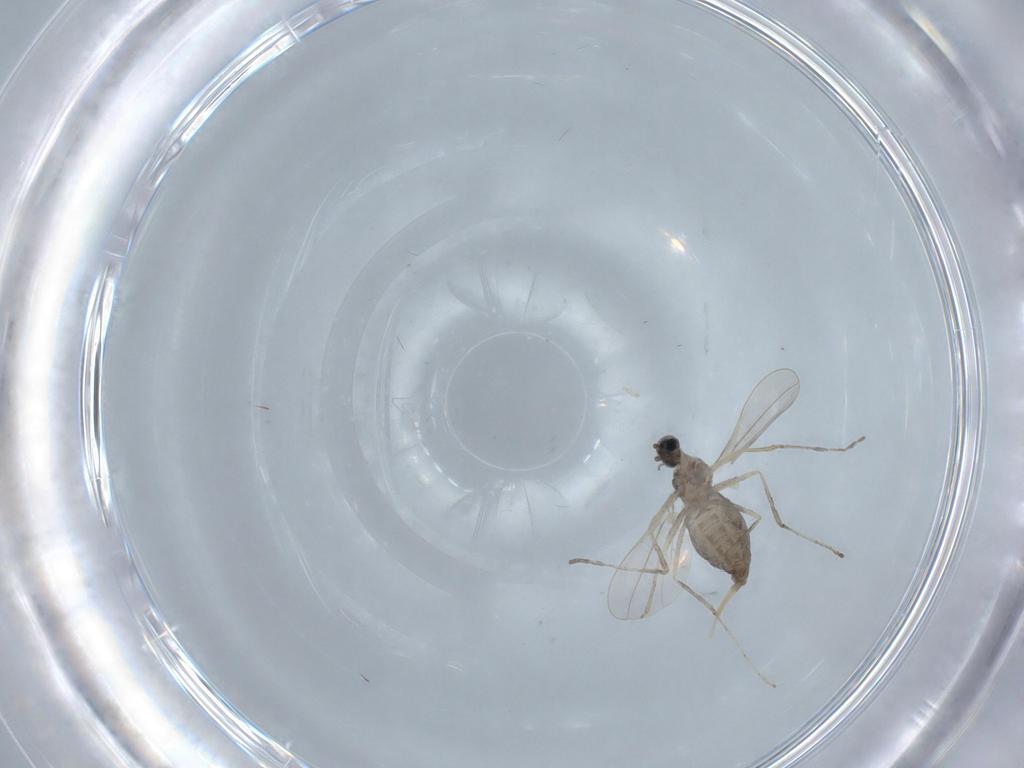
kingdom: Animalia
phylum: Arthropoda
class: Insecta
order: Diptera
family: Cecidomyiidae
